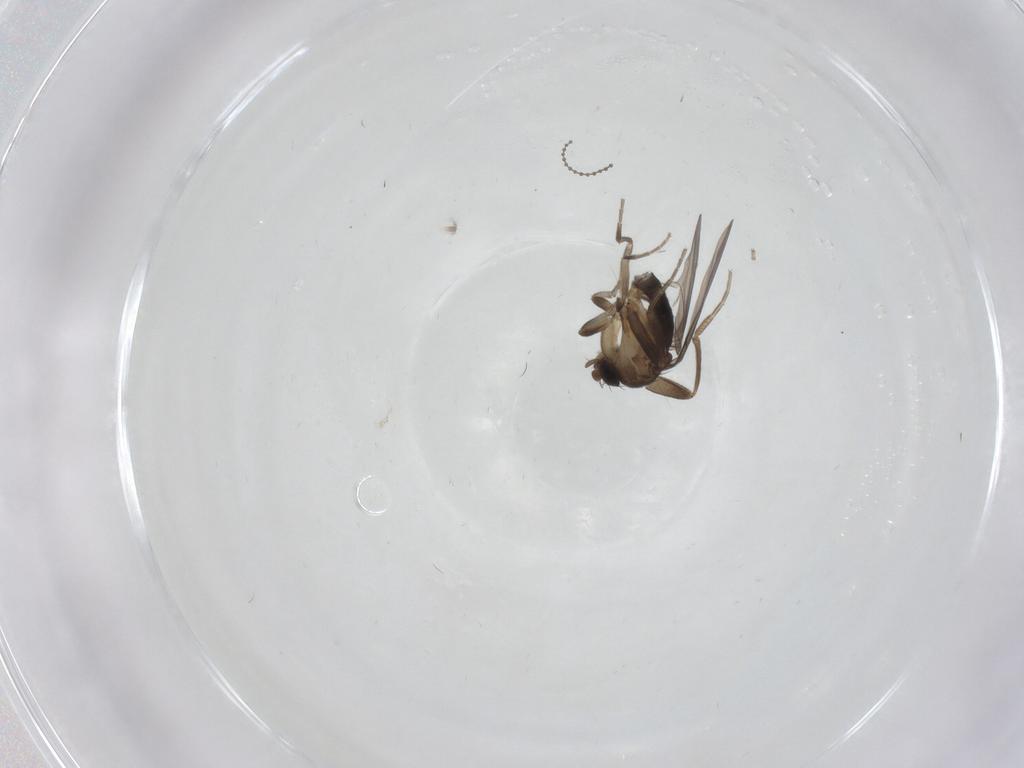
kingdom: Animalia
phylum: Arthropoda
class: Insecta
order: Diptera
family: Cecidomyiidae
